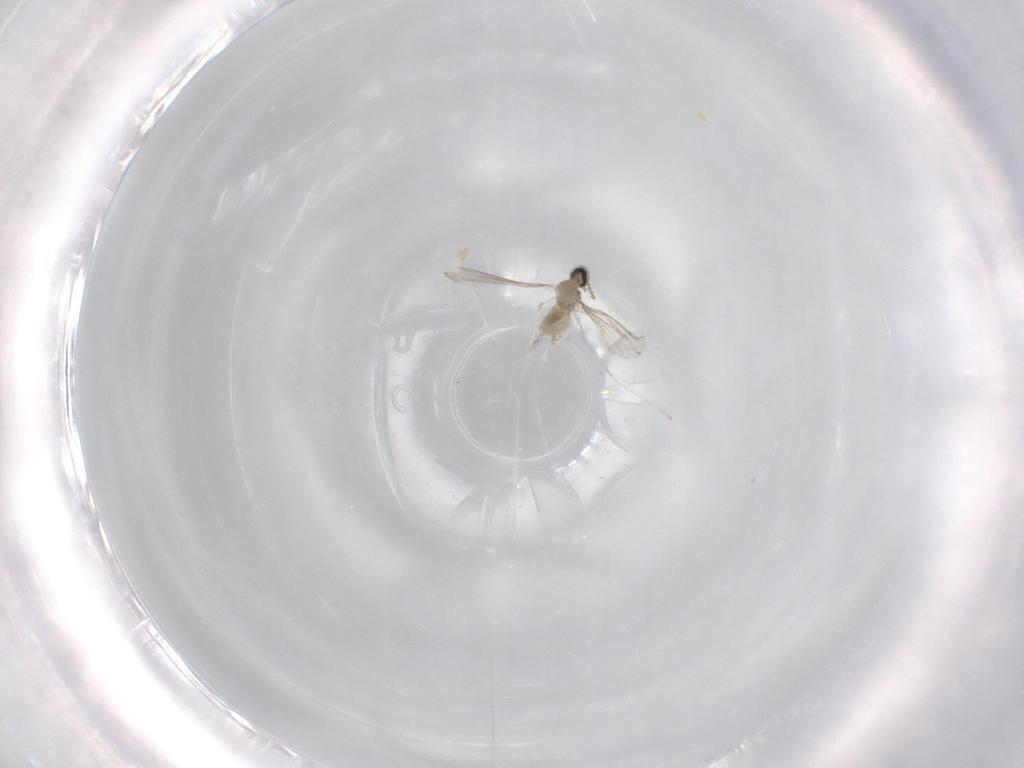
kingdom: Animalia
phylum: Arthropoda
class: Insecta
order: Diptera
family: Chironomidae
